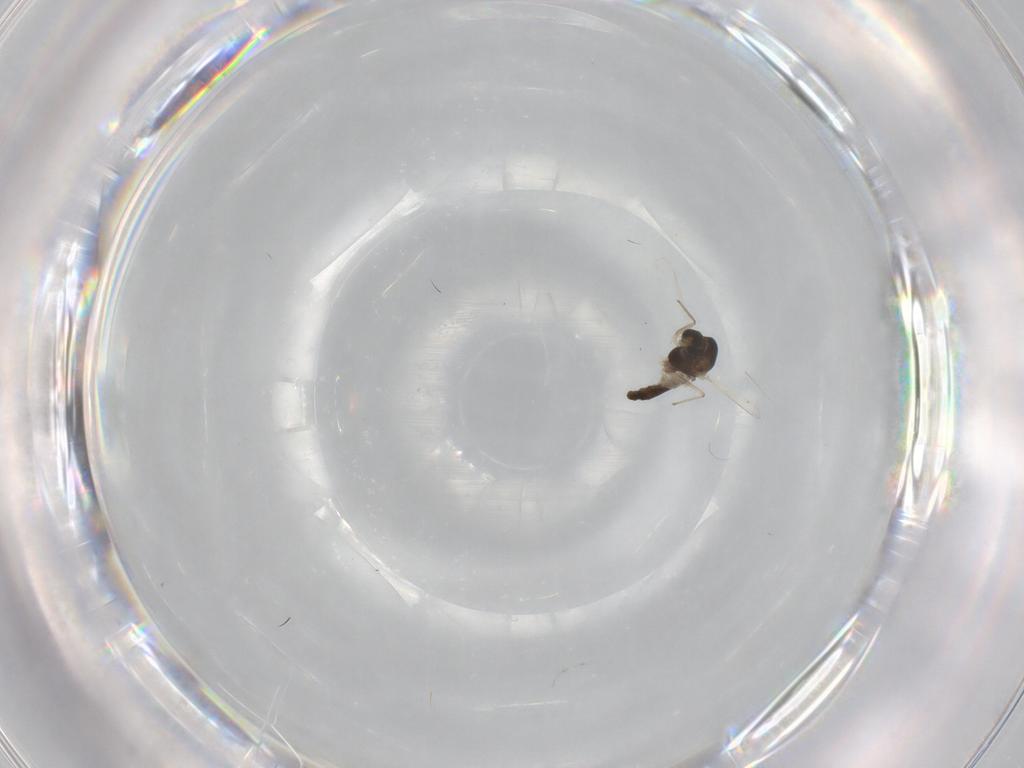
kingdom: Animalia
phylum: Arthropoda
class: Insecta
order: Diptera
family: Chironomidae
